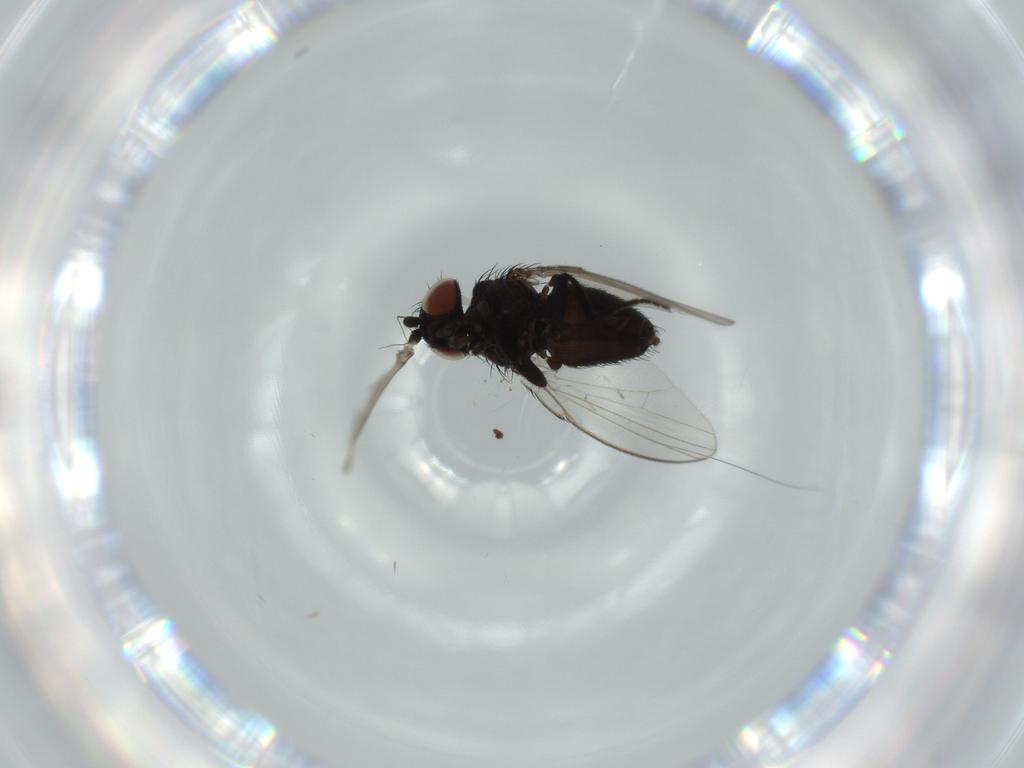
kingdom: Animalia
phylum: Arthropoda
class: Insecta
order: Diptera
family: Milichiidae
